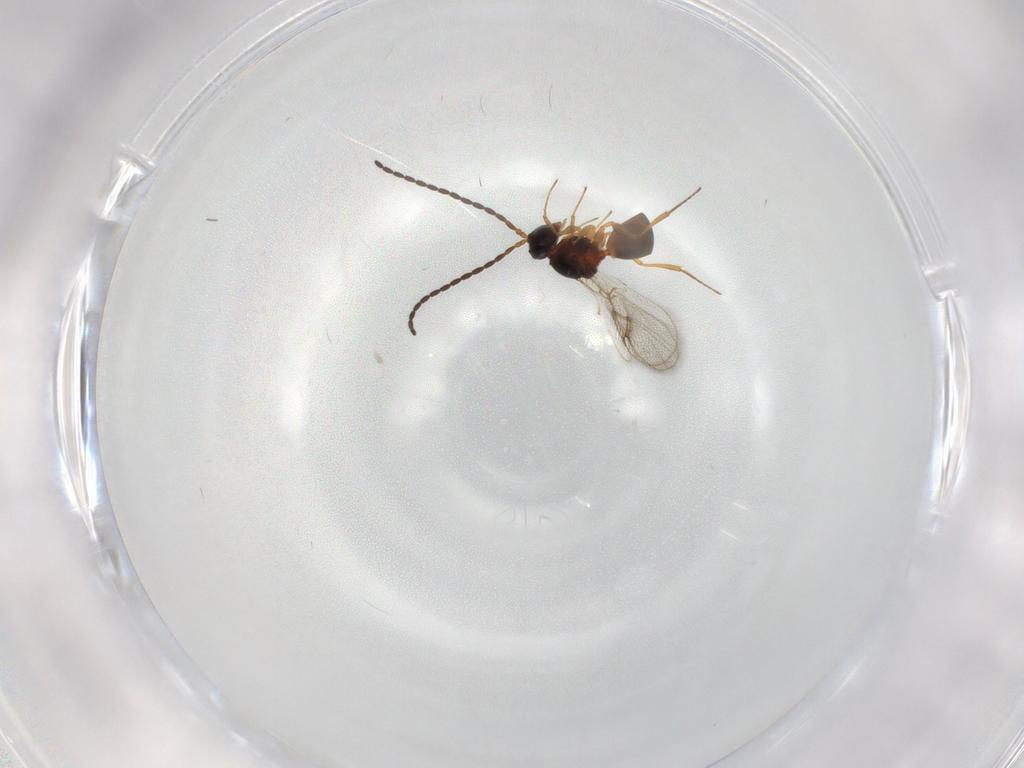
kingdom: Animalia
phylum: Arthropoda
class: Insecta
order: Hymenoptera
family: Figitidae
